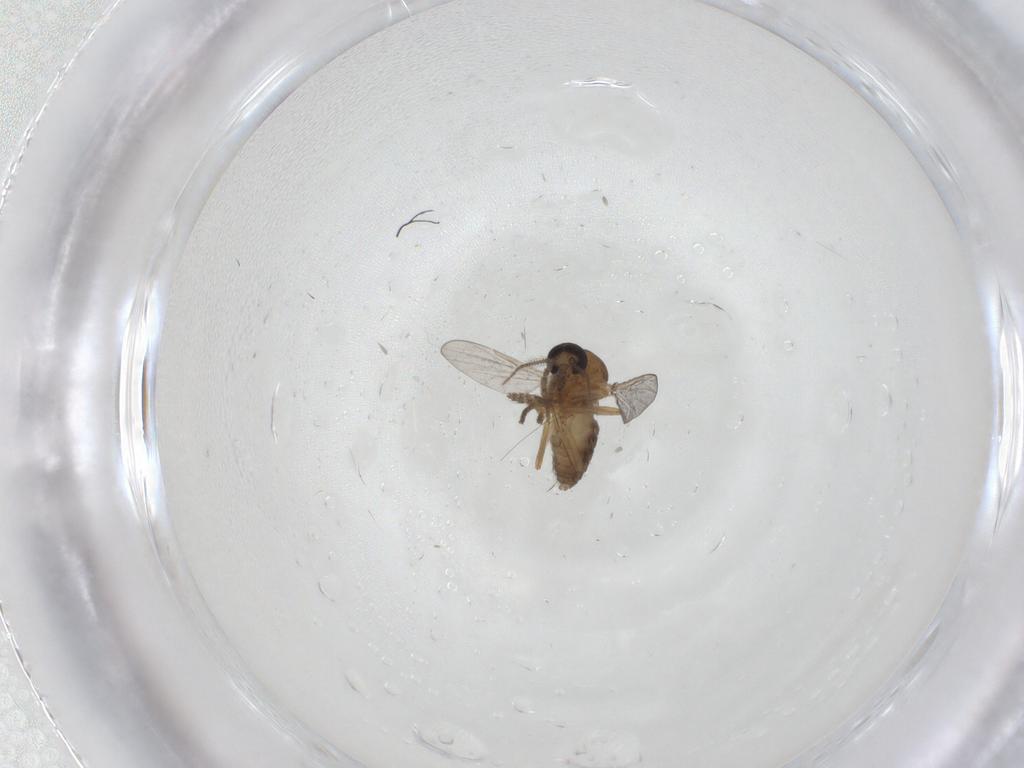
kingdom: Animalia
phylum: Arthropoda
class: Insecta
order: Diptera
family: Ceratopogonidae
